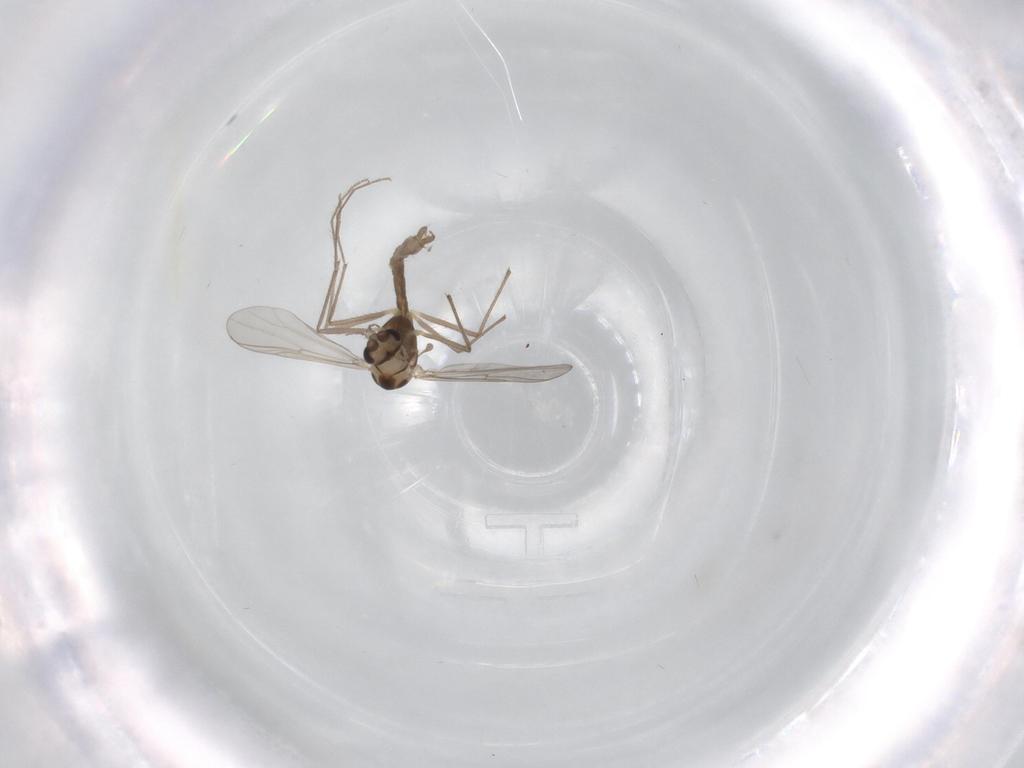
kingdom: Animalia
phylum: Arthropoda
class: Insecta
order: Diptera
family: Chironomidae
